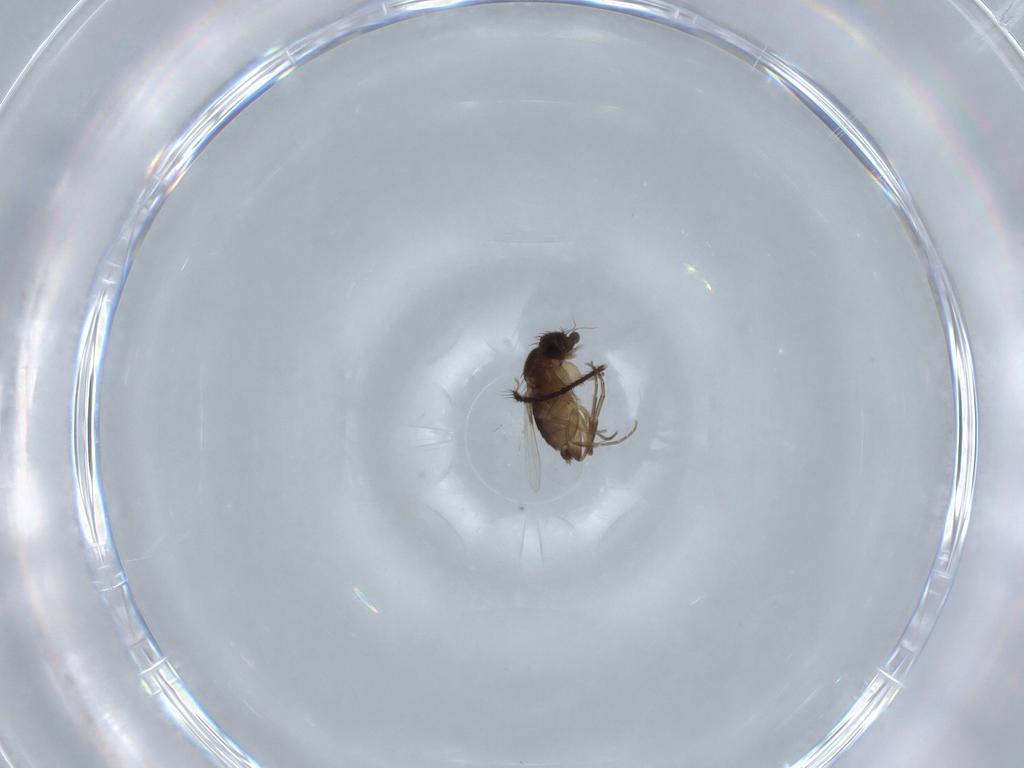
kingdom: Animalia
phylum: Arthropoda
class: Insecta
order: Diptera
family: Phoridae
